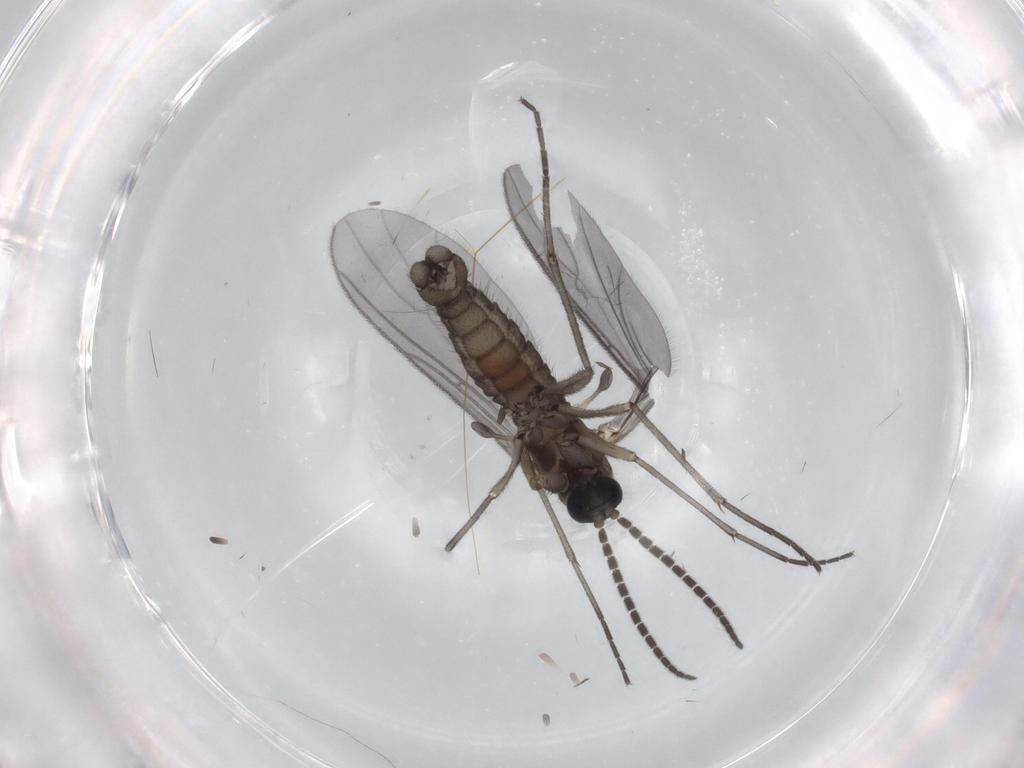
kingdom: Animalia
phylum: Arthropoda
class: Insecta
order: Diptera
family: Sciaridae
